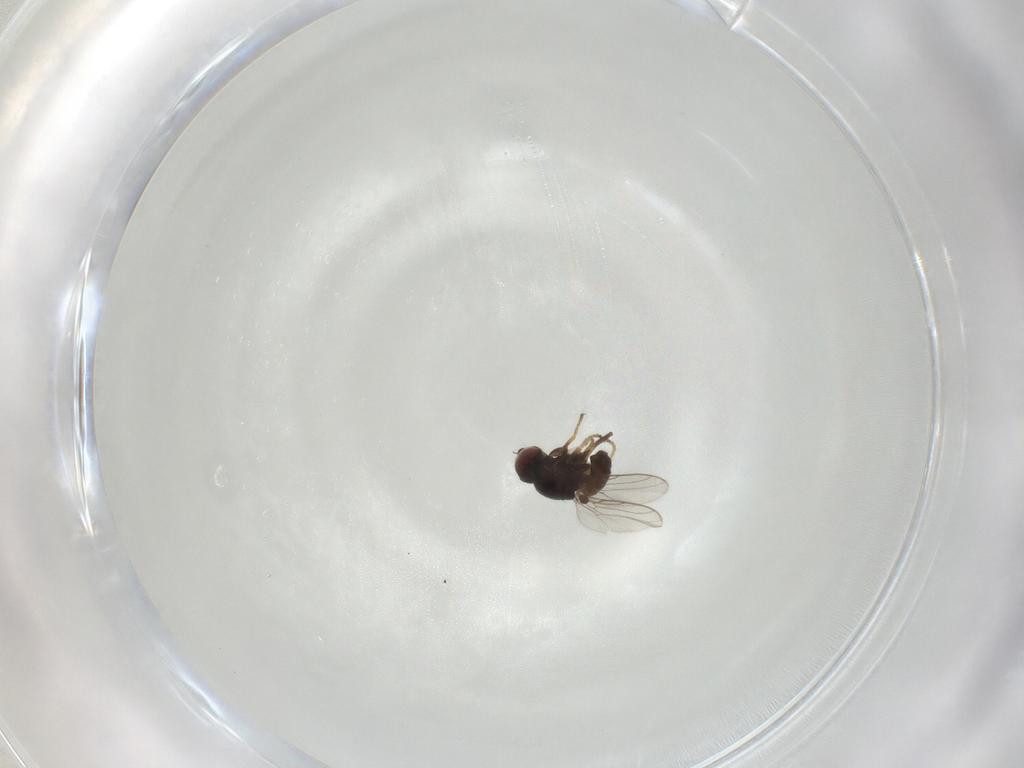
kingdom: Animalia
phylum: Arthropoda
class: Insecta
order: Diptera
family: Chloropidae
